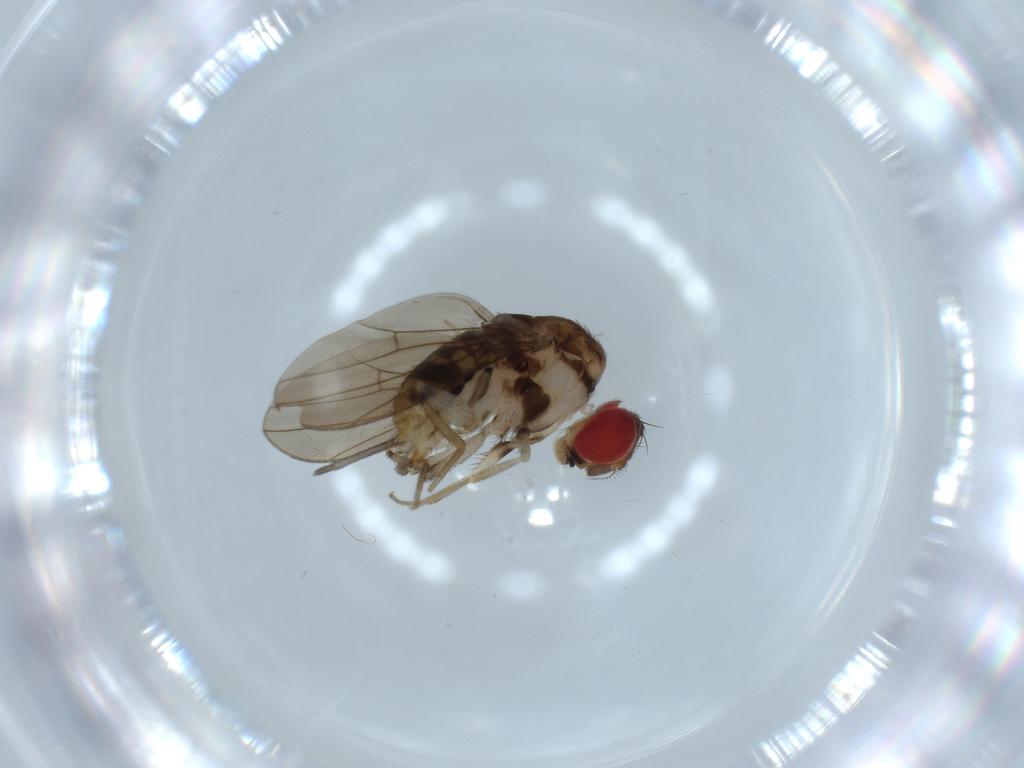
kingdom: Animalia
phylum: Arthropoda
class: Insecta
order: Diptera
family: Drosophilidae
